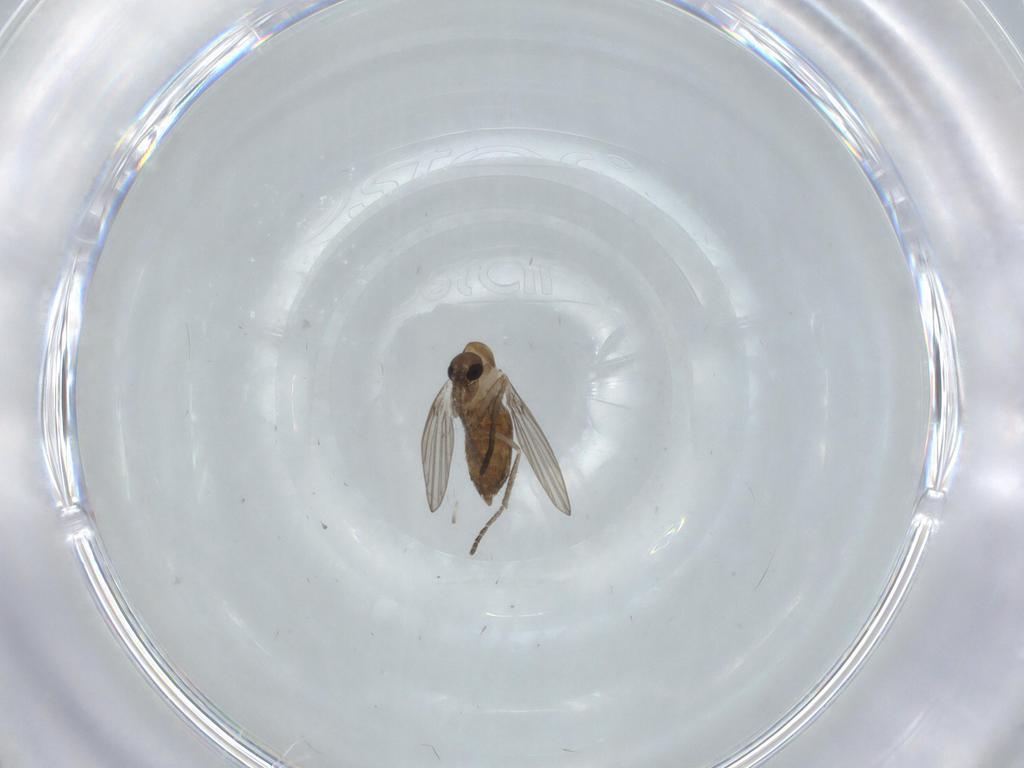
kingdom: Animalia
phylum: Arthropoda
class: Insecta
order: Diptera
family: Psychodidae
